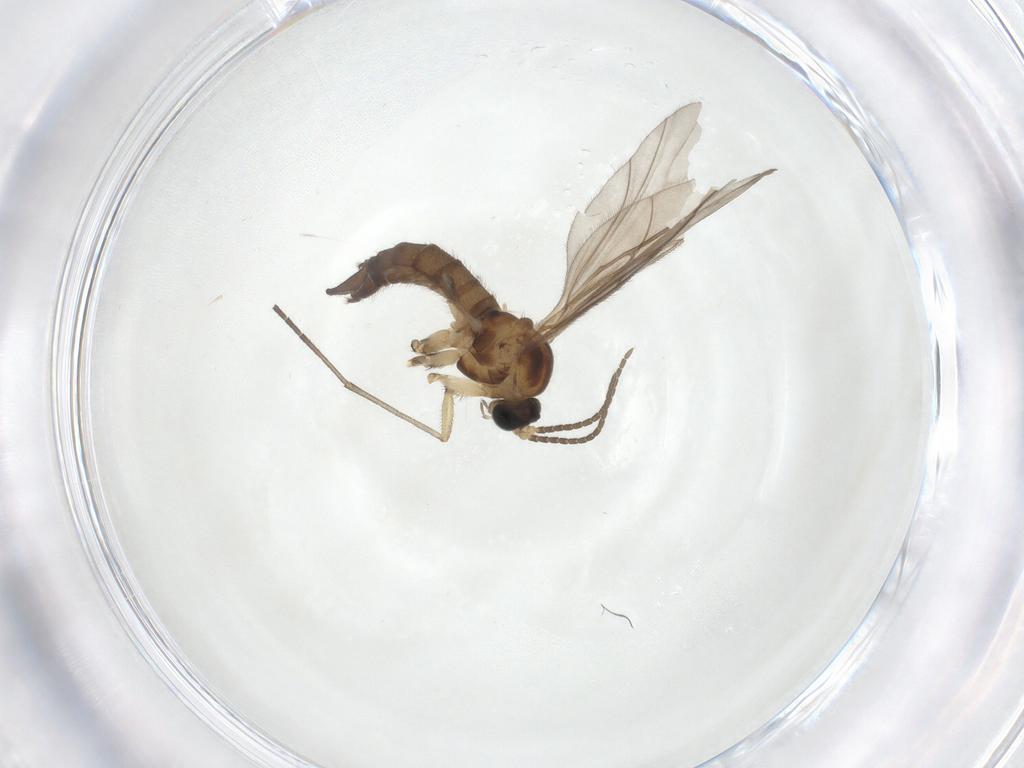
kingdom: Animalia
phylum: Arthropoda
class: Insecta
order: Diptera
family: Sciaridae
